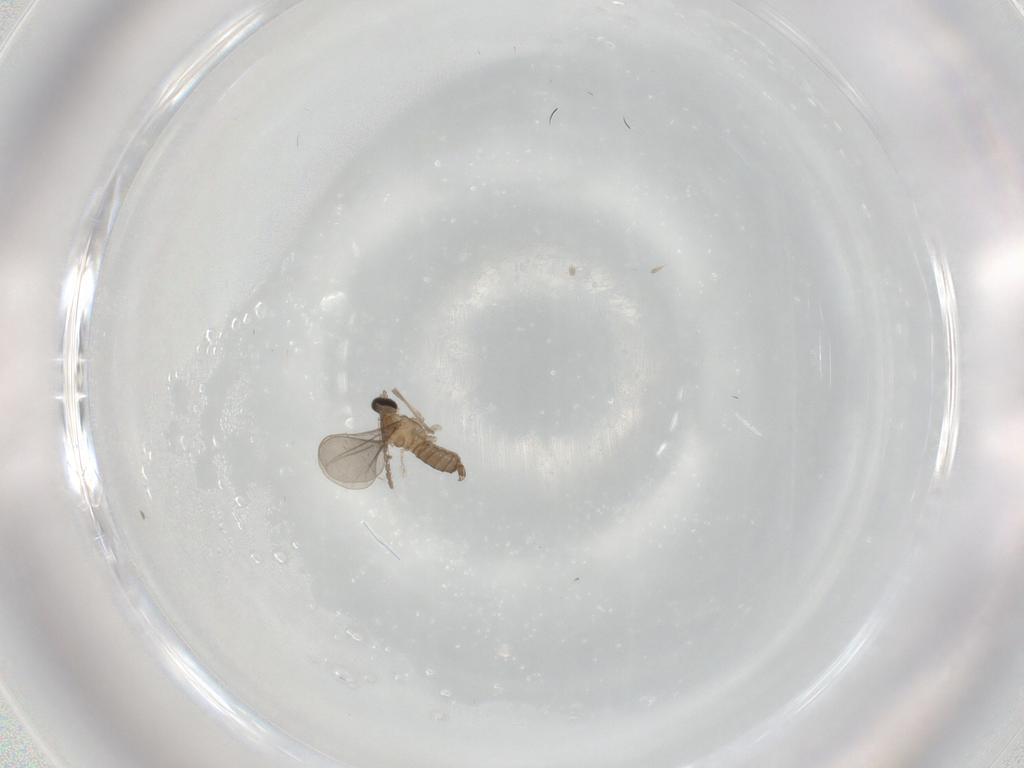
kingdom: Animalia
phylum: Arthropoda
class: Insecta
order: Diptera
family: Cecidomyiidae
